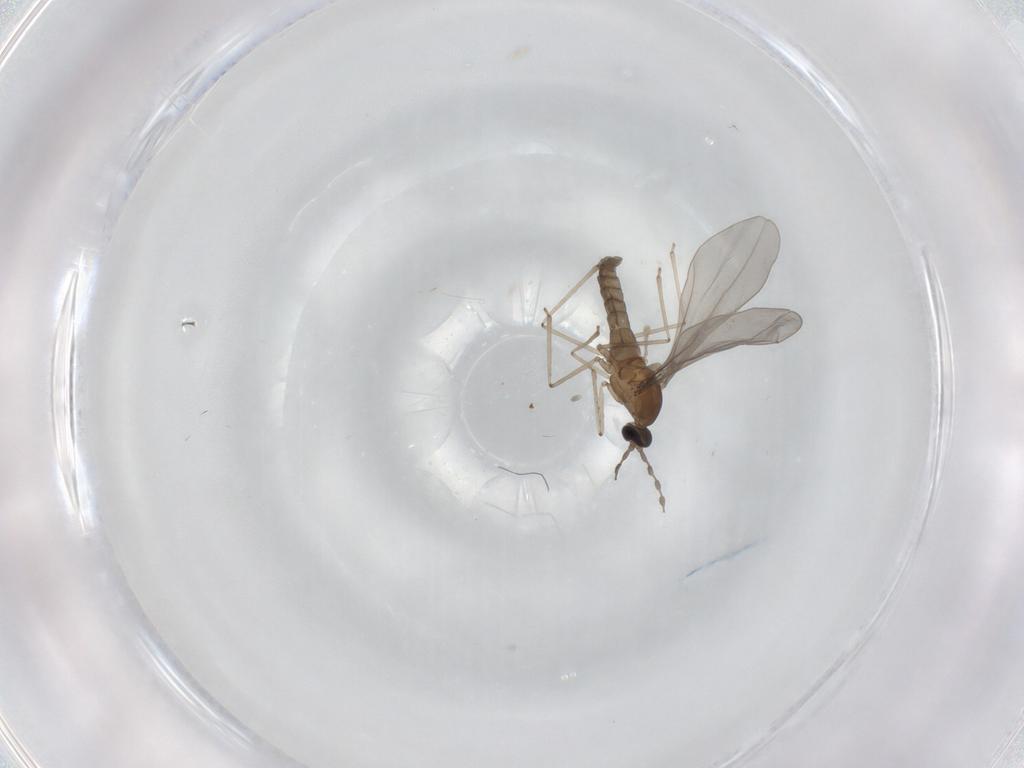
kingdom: Animalia
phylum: Arthropoda
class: Insecta
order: Diptera
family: Cecidomyiidae
